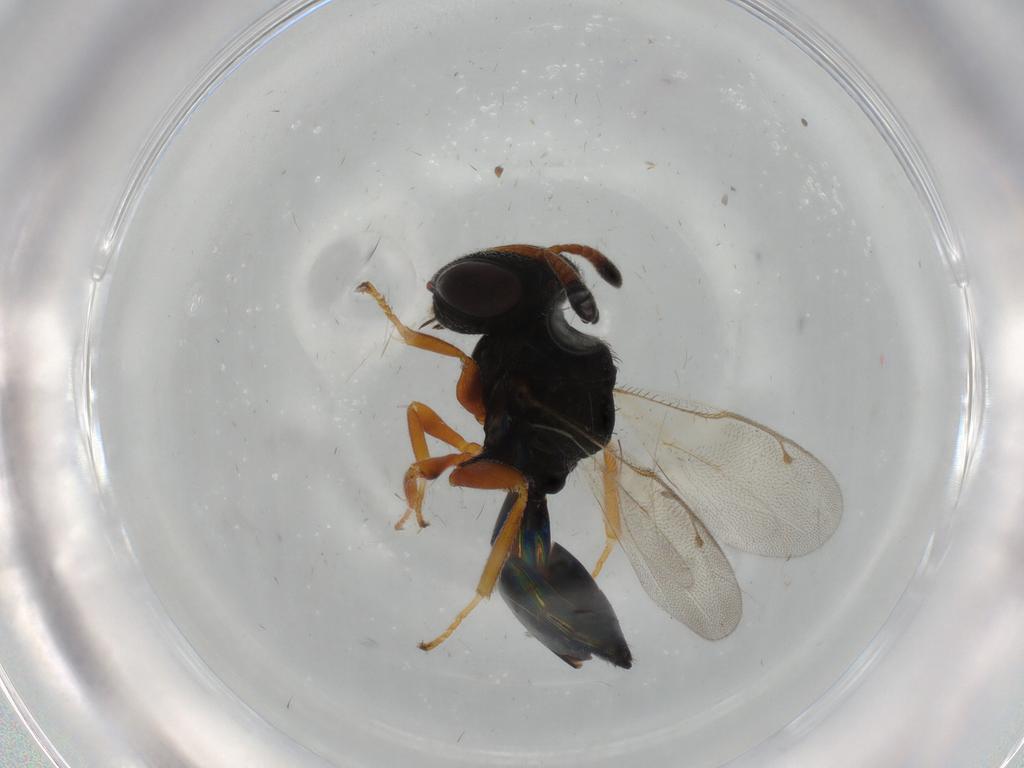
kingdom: Animalia
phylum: Arthropoda
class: Insecta
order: Hymenoptera
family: Pteromalidae
